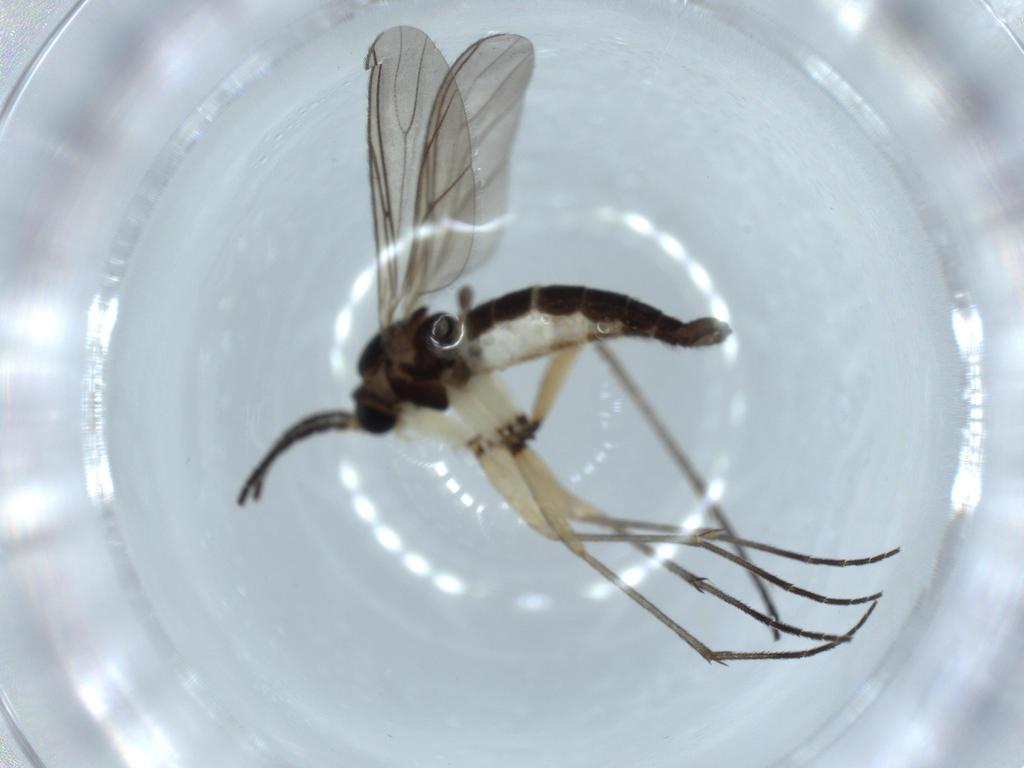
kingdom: Animalia
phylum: Arthropoda
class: Insecta
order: Diptera
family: Sciaridae
